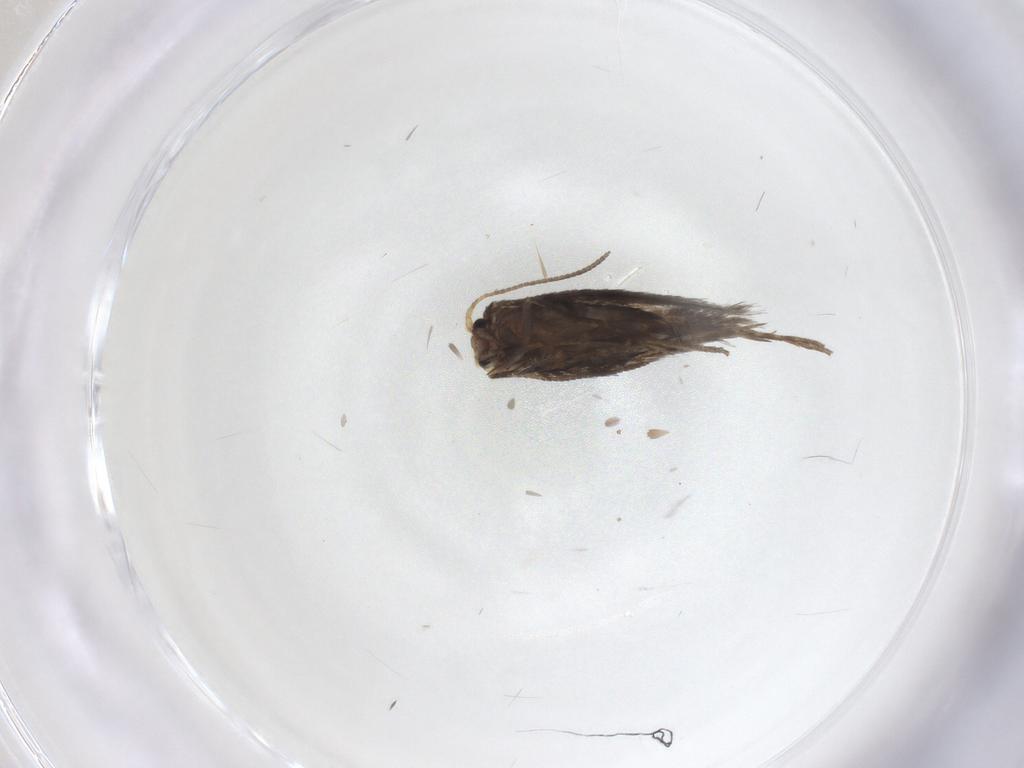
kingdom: Animalia
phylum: Arthropoda
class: Insecta
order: Lepidoptera
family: Nepticulidae
